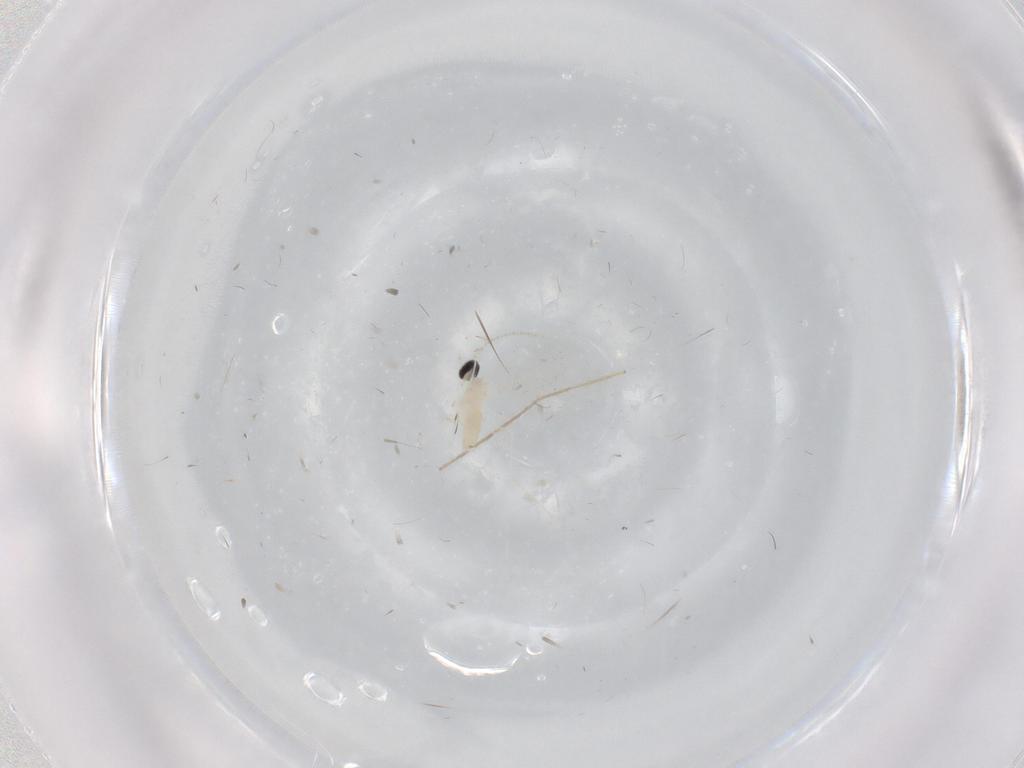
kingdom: Animalia
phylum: Arthropoda
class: Insecta
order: Diptera
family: Cecidomyiidae
